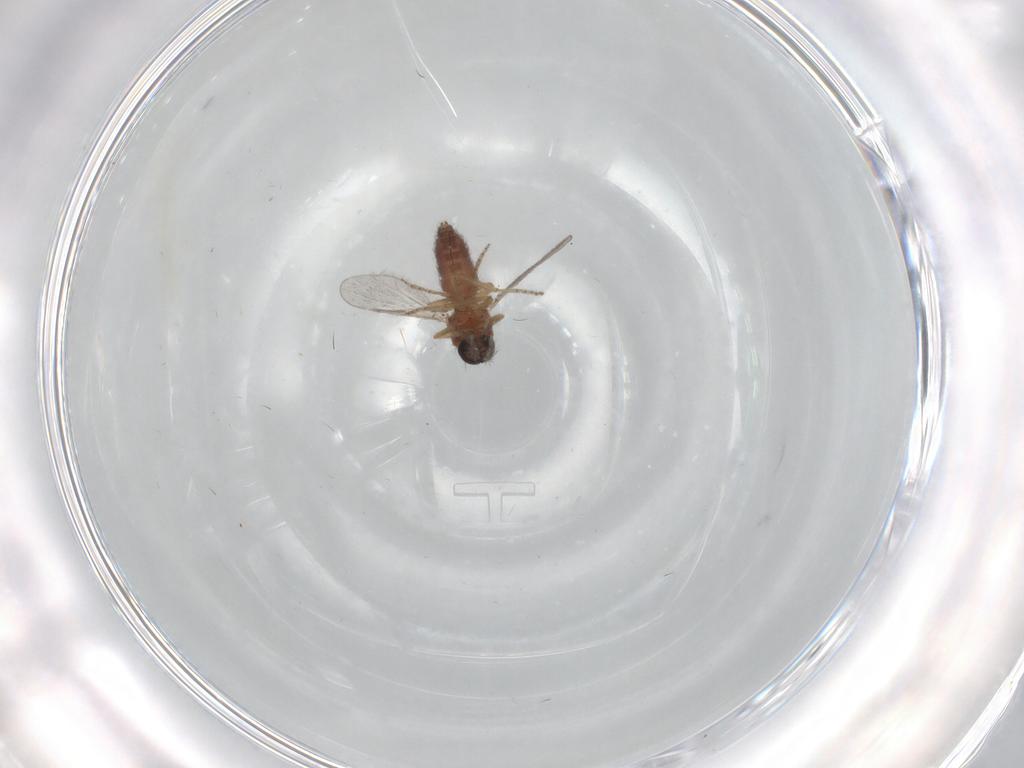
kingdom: Animalia
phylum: Arthropoda
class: Insecta
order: Diptera
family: Ceratopogonidae
